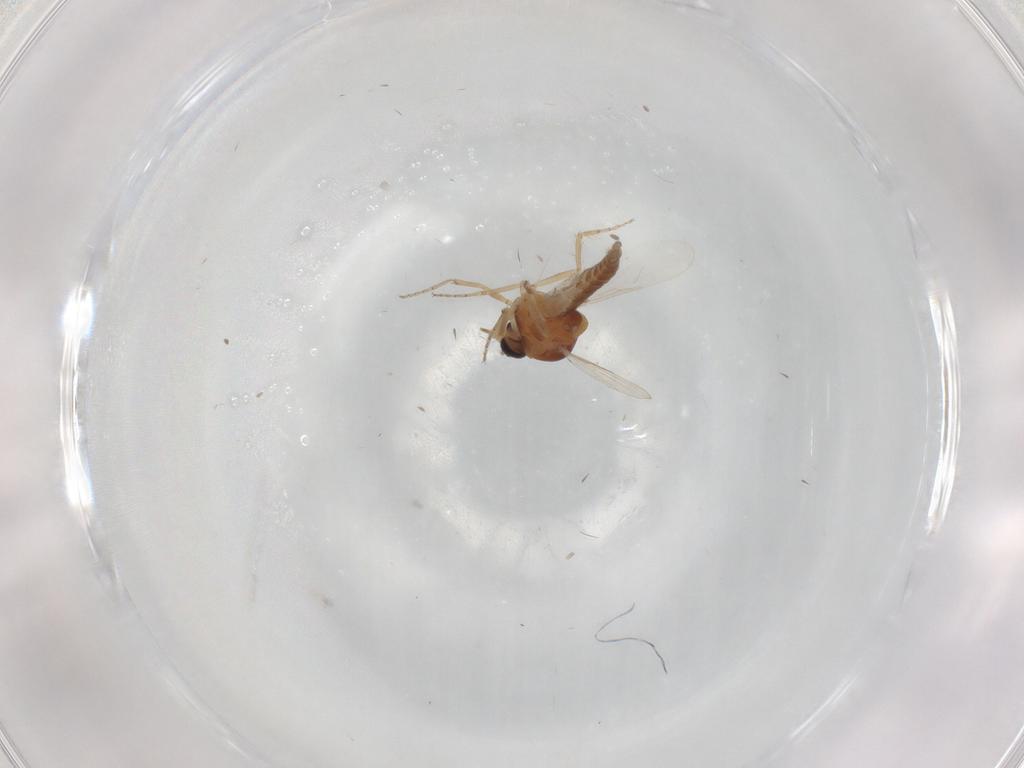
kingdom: Animalia
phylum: Arthropoda
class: Insecta
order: Diptera
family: Ceratopogonidae
